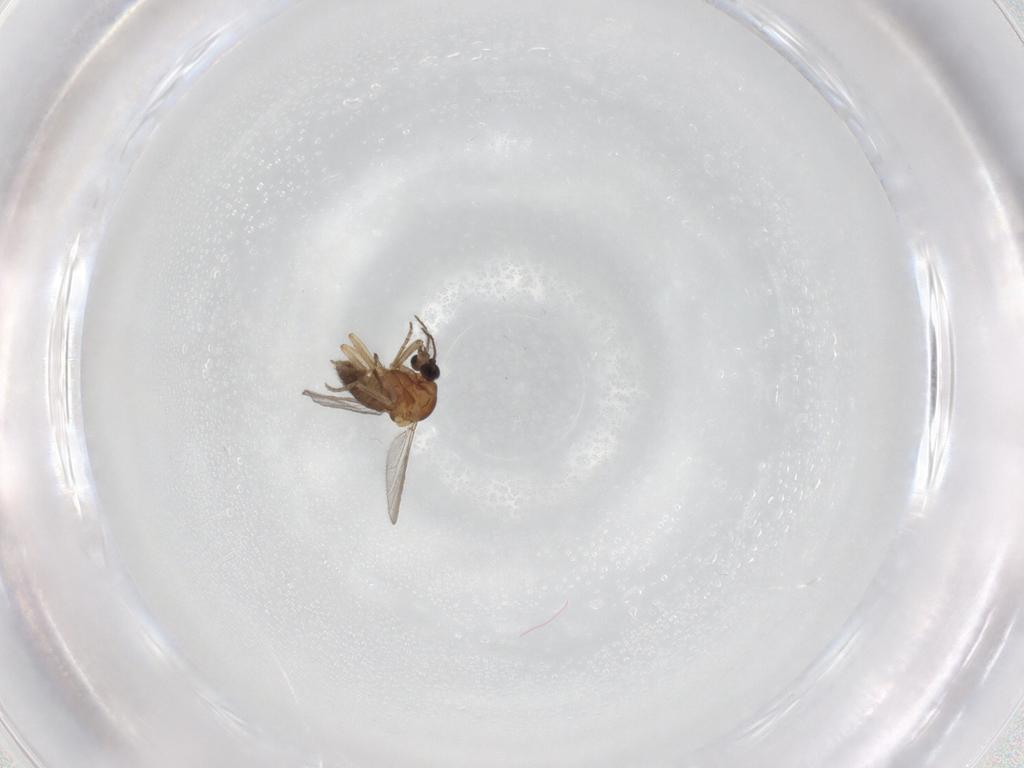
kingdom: Animalia
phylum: Arthropoda
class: Insecta
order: Diptera
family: Ceratopogonidae
